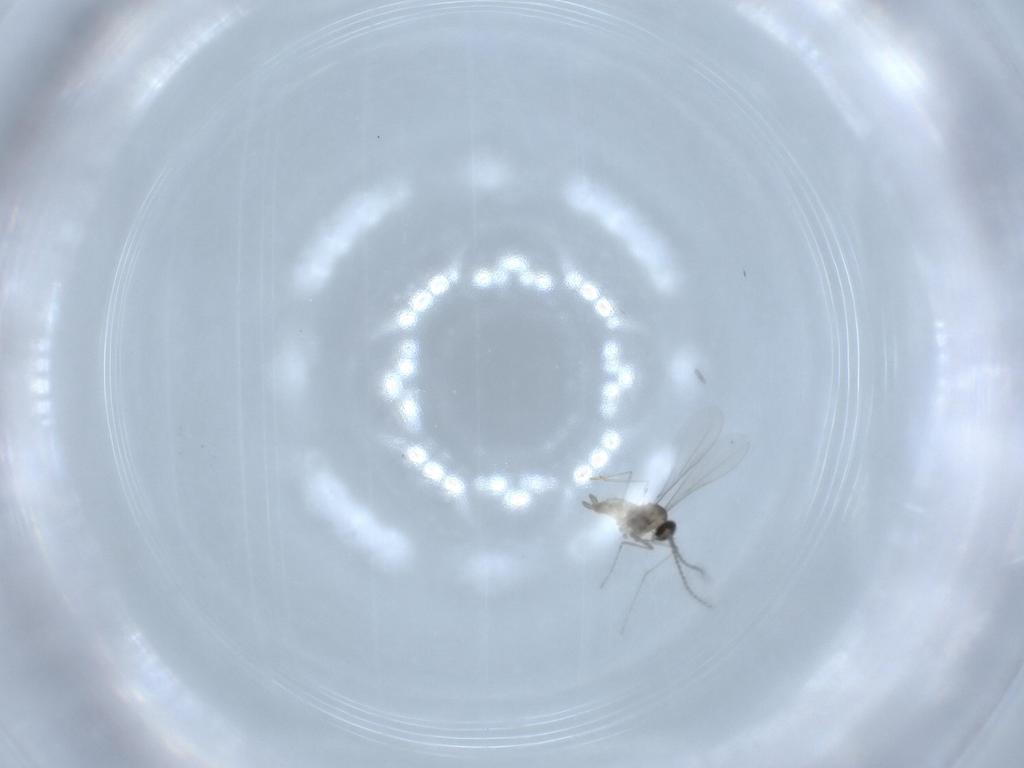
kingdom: Animalia
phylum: Arthropoda
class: Insecta
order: Diptera
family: Cecidomyiidae
